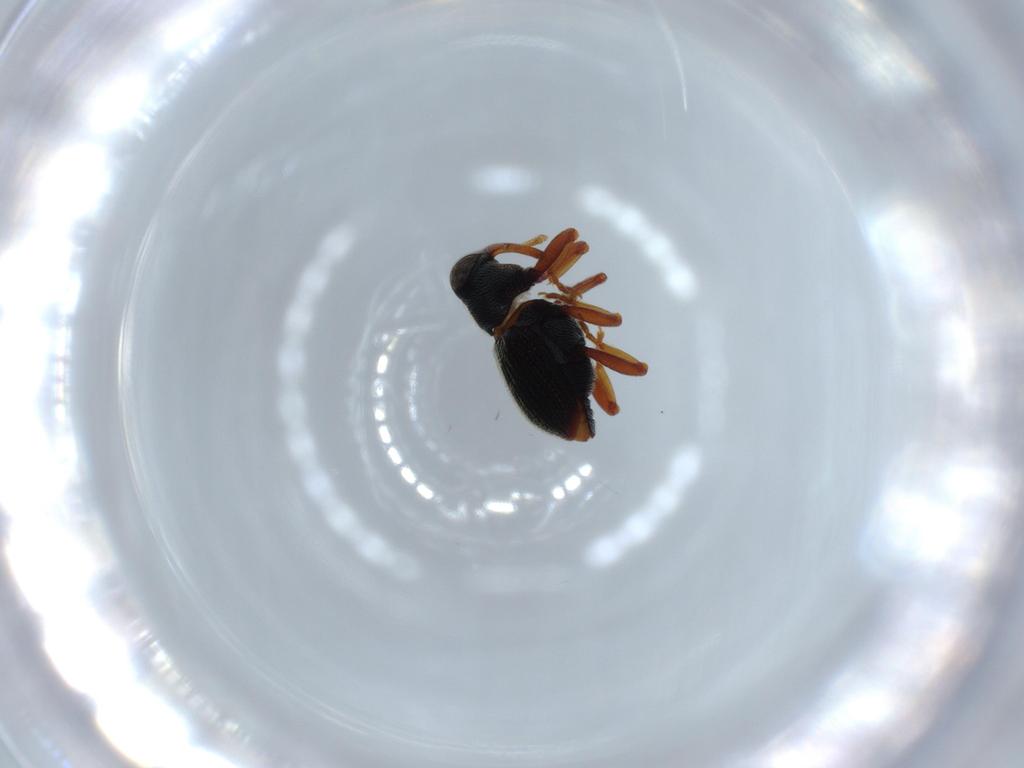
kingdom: Animalia
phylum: Arthropoda
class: Insecta
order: Coleoptera
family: Curculionidae
